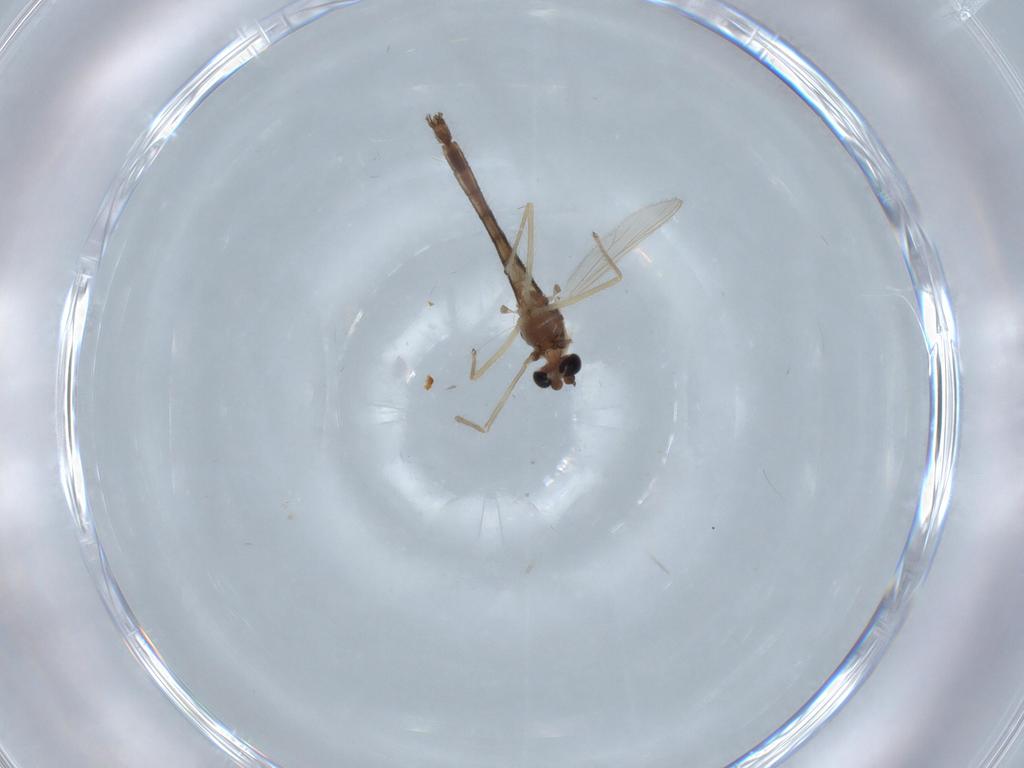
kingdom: Animalia
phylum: Arthropoda
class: Insecta
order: Diptera
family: Chironomidae
